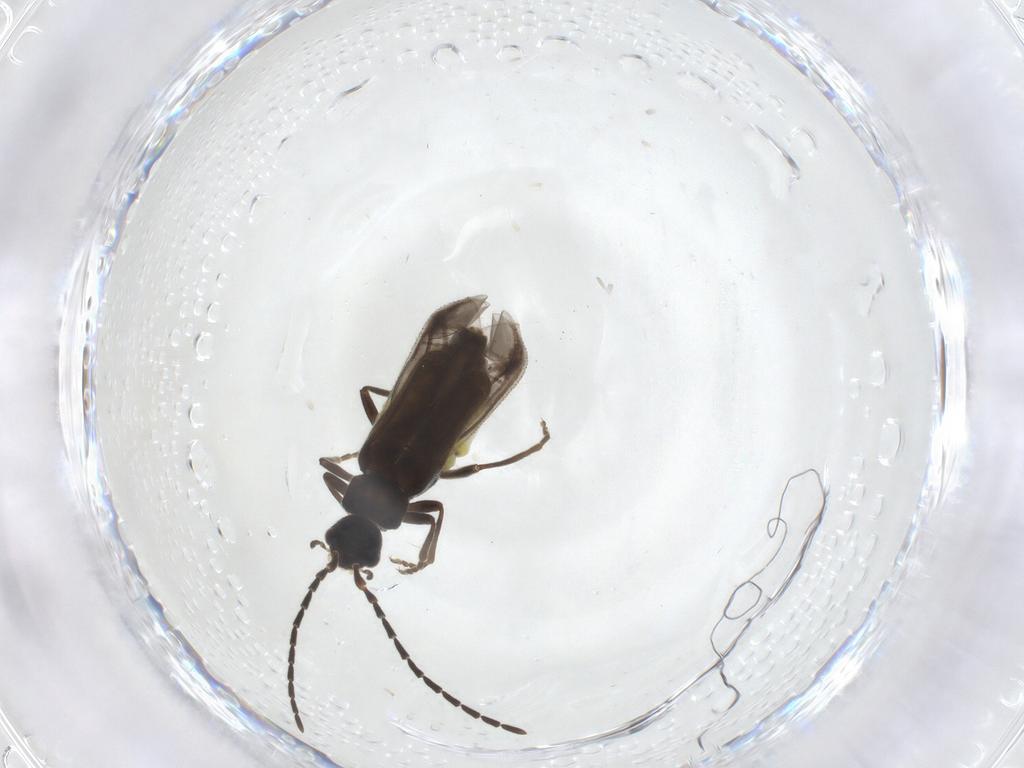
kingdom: Animalia
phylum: Arthropoda
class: Insecta
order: Coleoptera
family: Cantharidae
